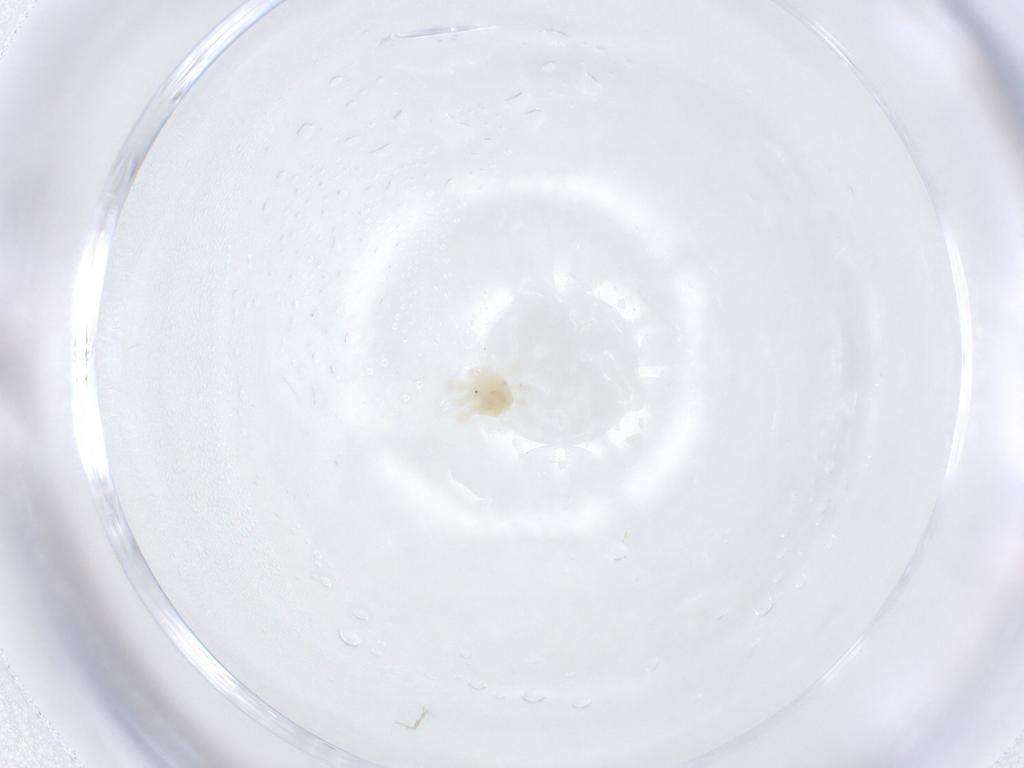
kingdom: Animalia
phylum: Arthropoda
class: Arachnida
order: Trombidiformes
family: Anystidae
